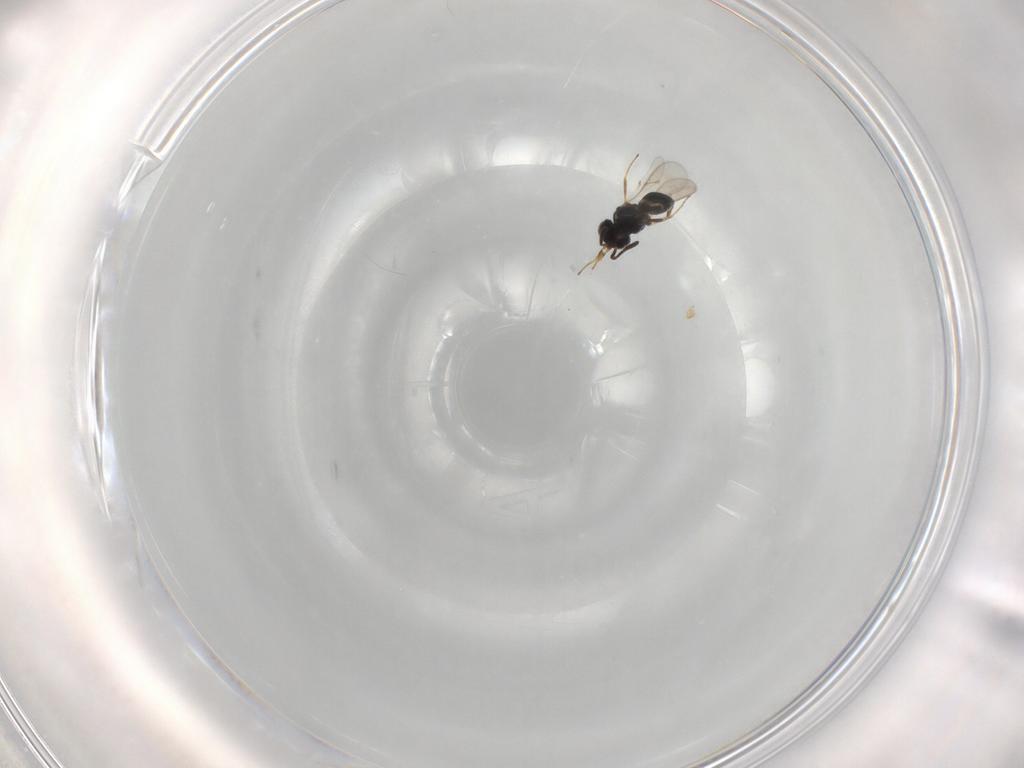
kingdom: Animalia
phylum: Arthropoda
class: Insecta
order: Hymenoptera
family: Scelionidae
